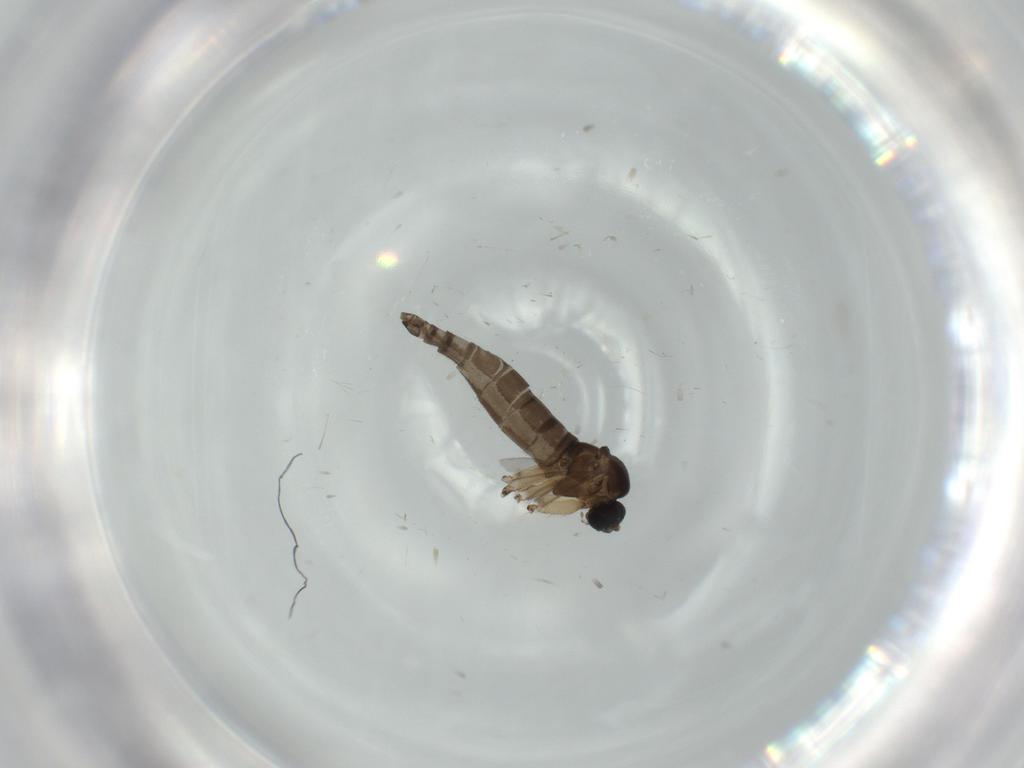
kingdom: Animalia
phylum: Arthropoda
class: Insecta
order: Diptera
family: Sciaridae
